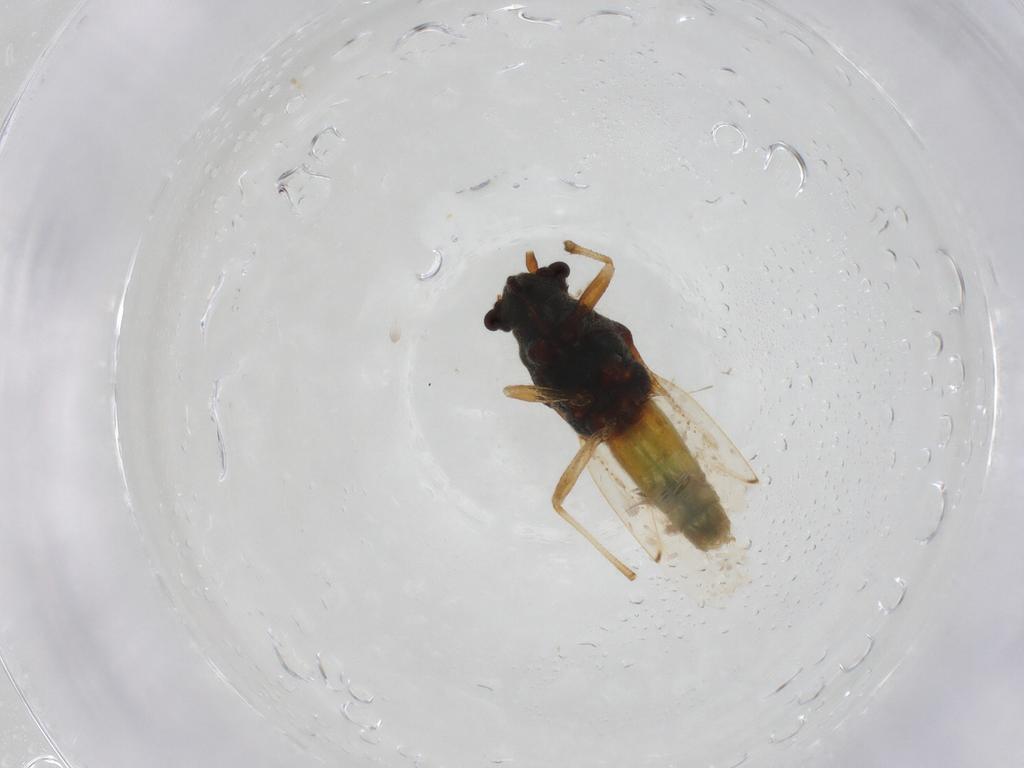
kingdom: Animalia
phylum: Arthropoda
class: Insecta
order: Hemiptera
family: Ninidae
